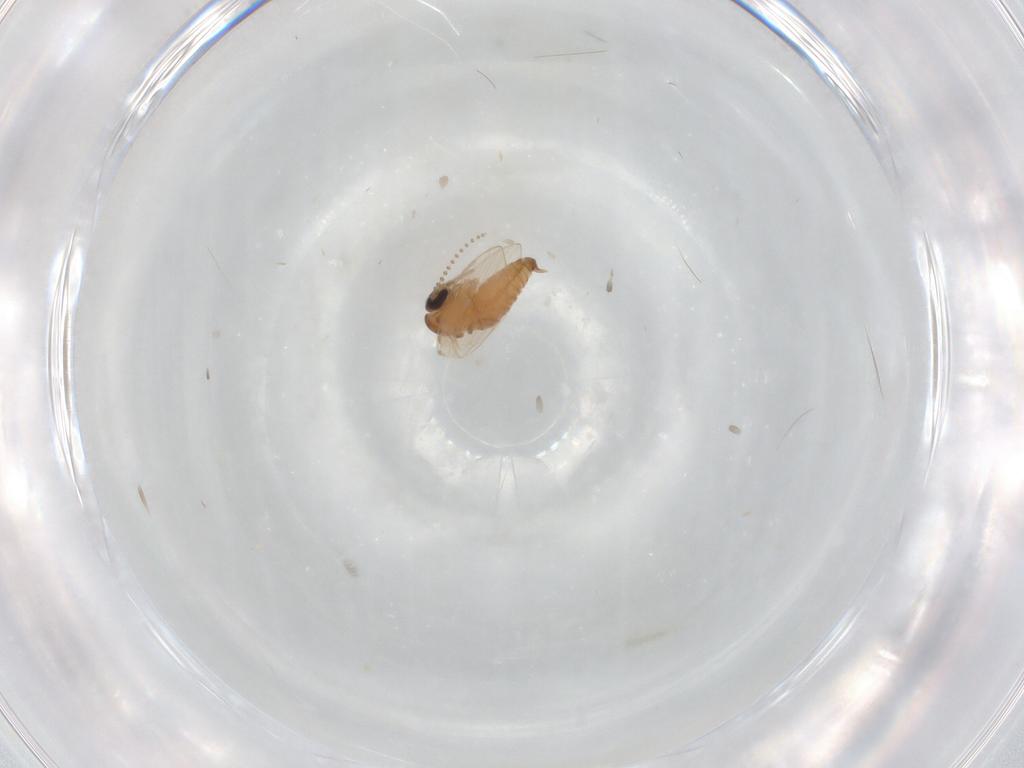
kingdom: Animalia
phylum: Arthropoda
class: Insecta
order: Diptera
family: Psychodidae
